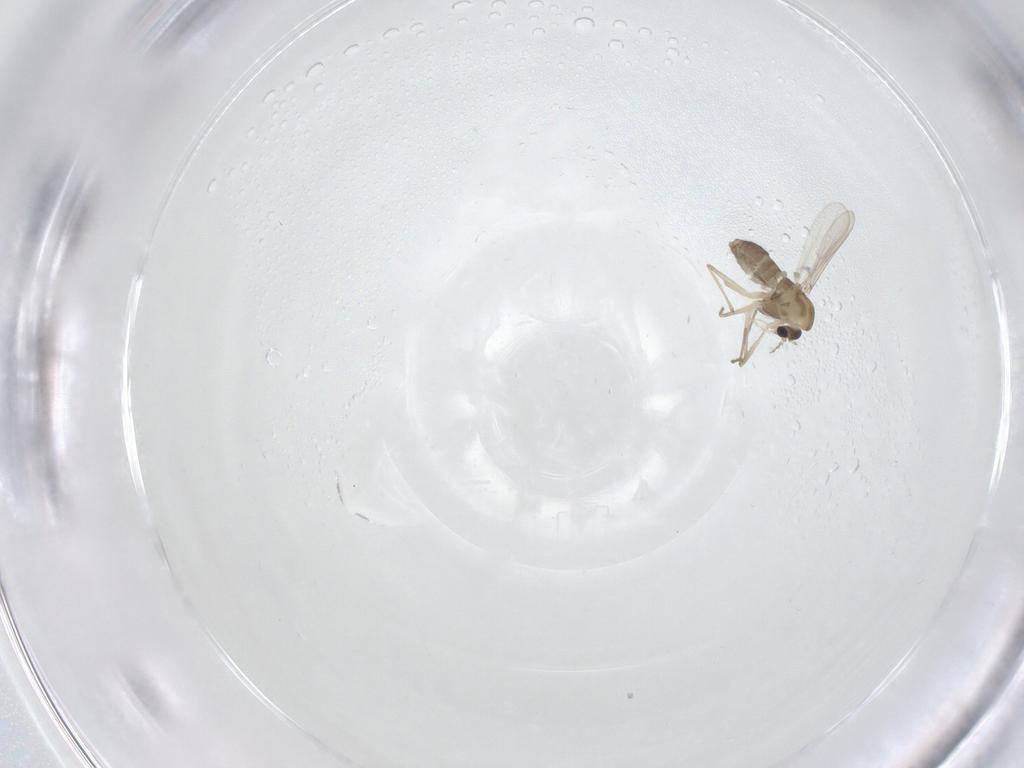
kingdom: Animalia
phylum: Arthropoda
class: Insecta
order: Diptera
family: Chironomidae
